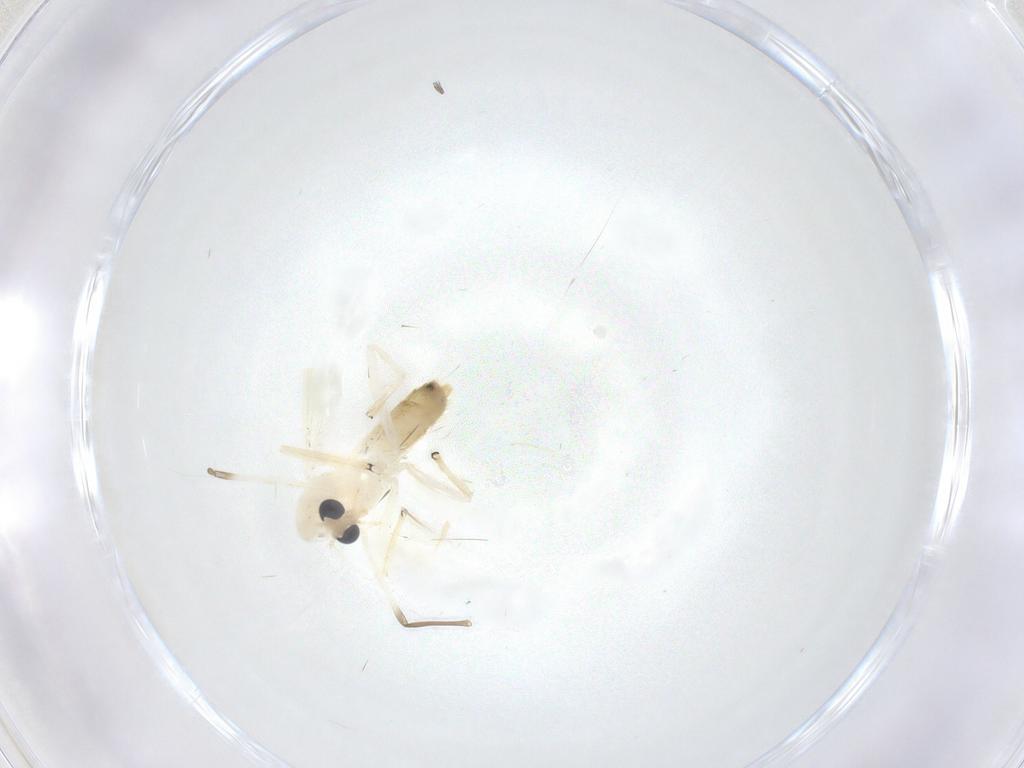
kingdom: Animalia
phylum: Arthropoda
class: Insecta
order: Diptera
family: Chironomidae
